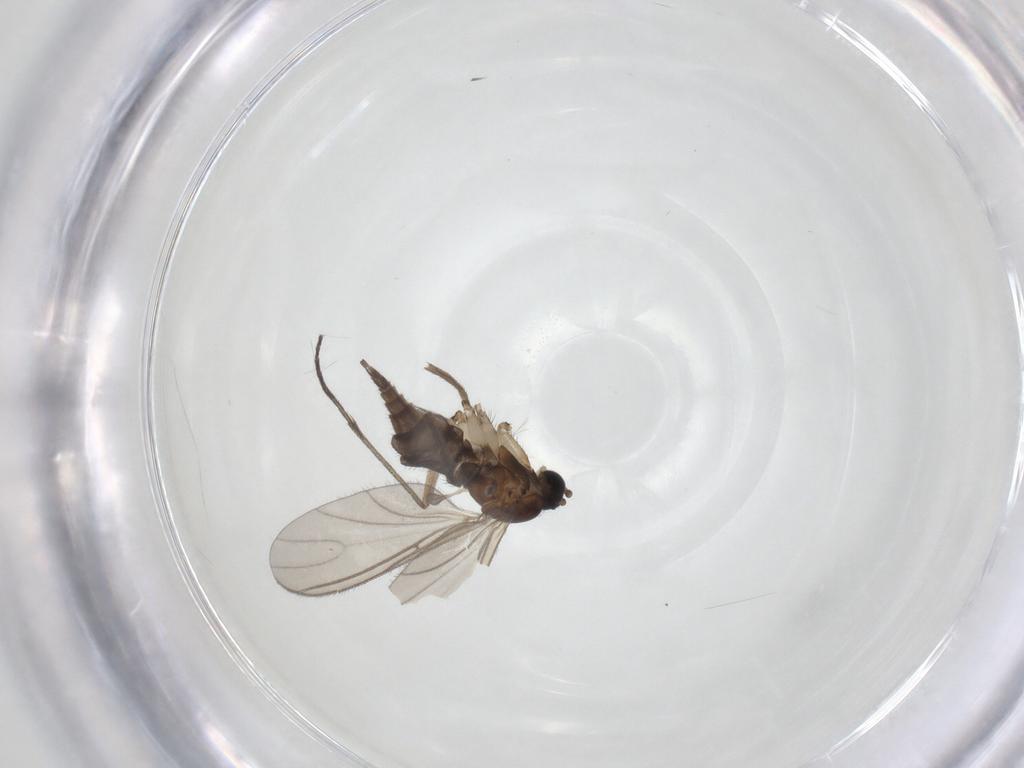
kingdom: Animalia
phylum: Arthropoda
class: Insecta
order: Diptera
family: Sciaridae
